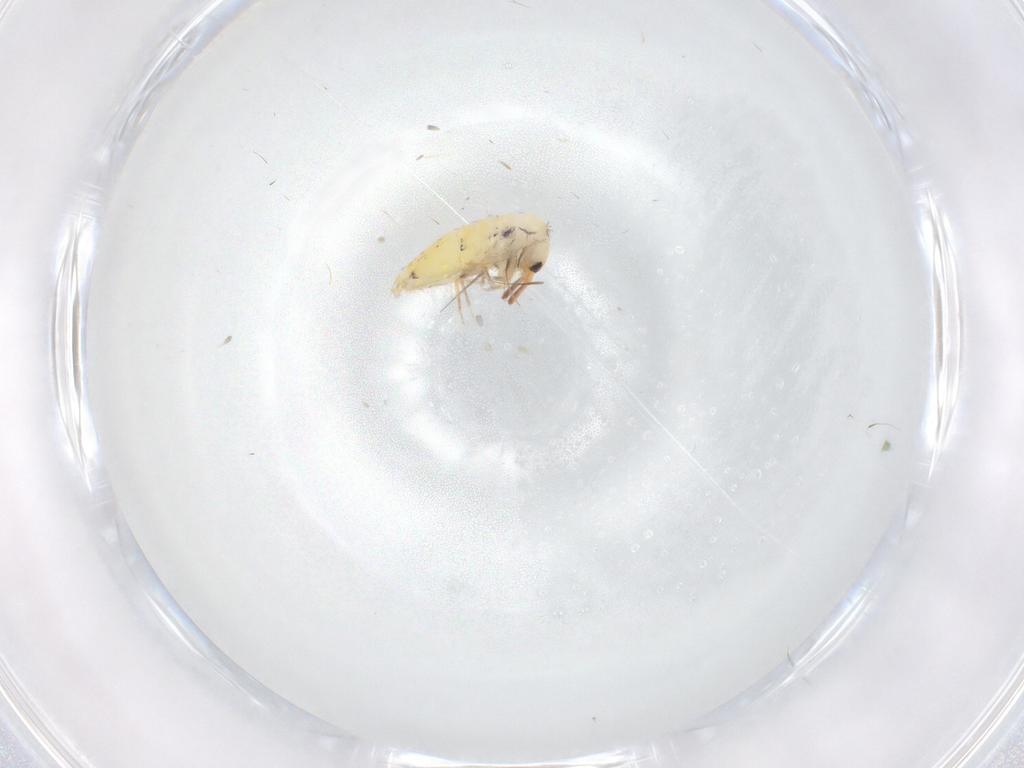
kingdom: Animalia
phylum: Arthropoda
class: Collembola
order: Entomobryomorpha
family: Entomobryidae
